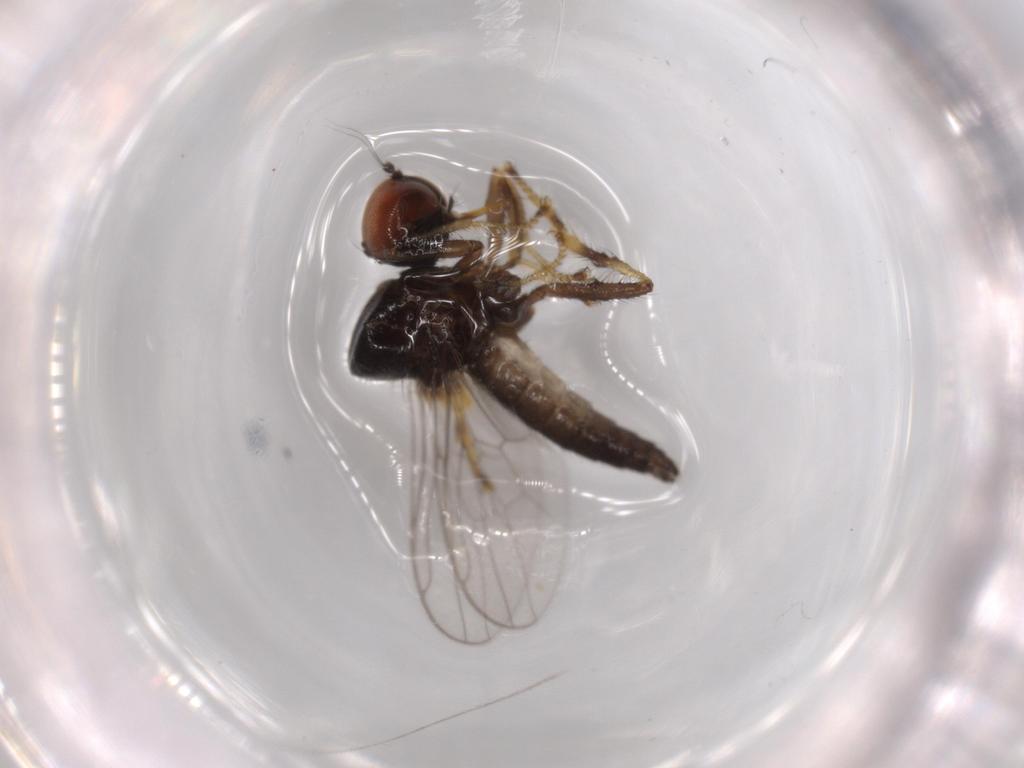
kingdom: Animalia
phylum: Arthropoda
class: Insecta
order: Diptera
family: Hybotidae
